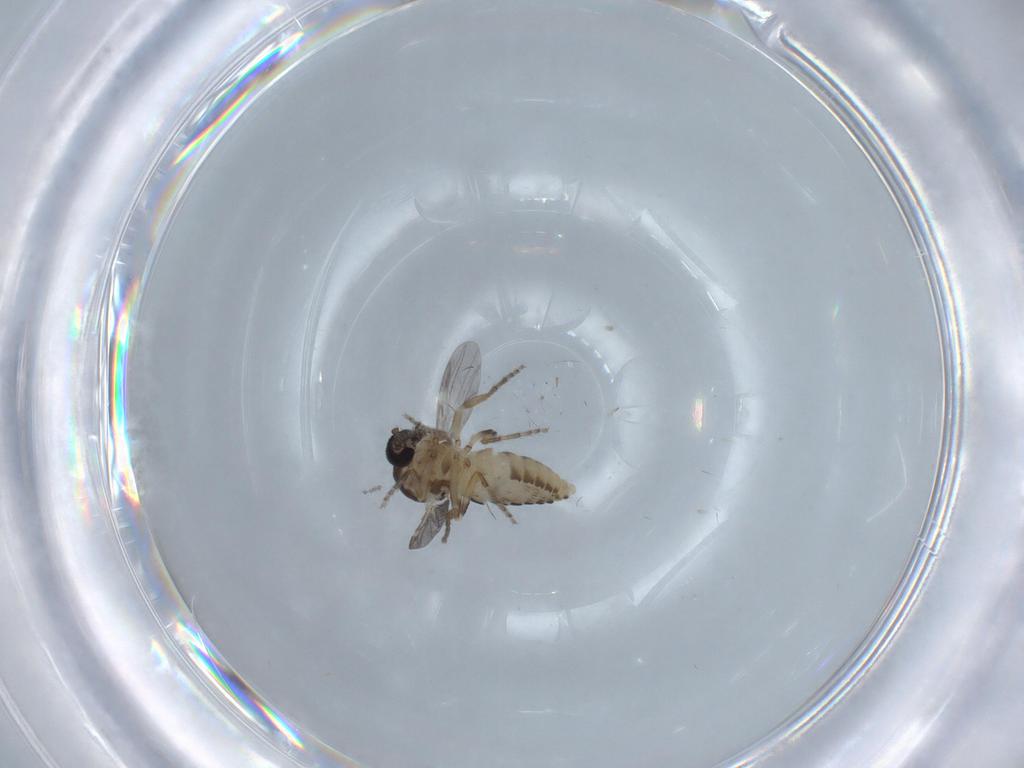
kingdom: Animalia
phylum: Arthropoda
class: Insecta
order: Diptera
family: Ceratopogonidae
